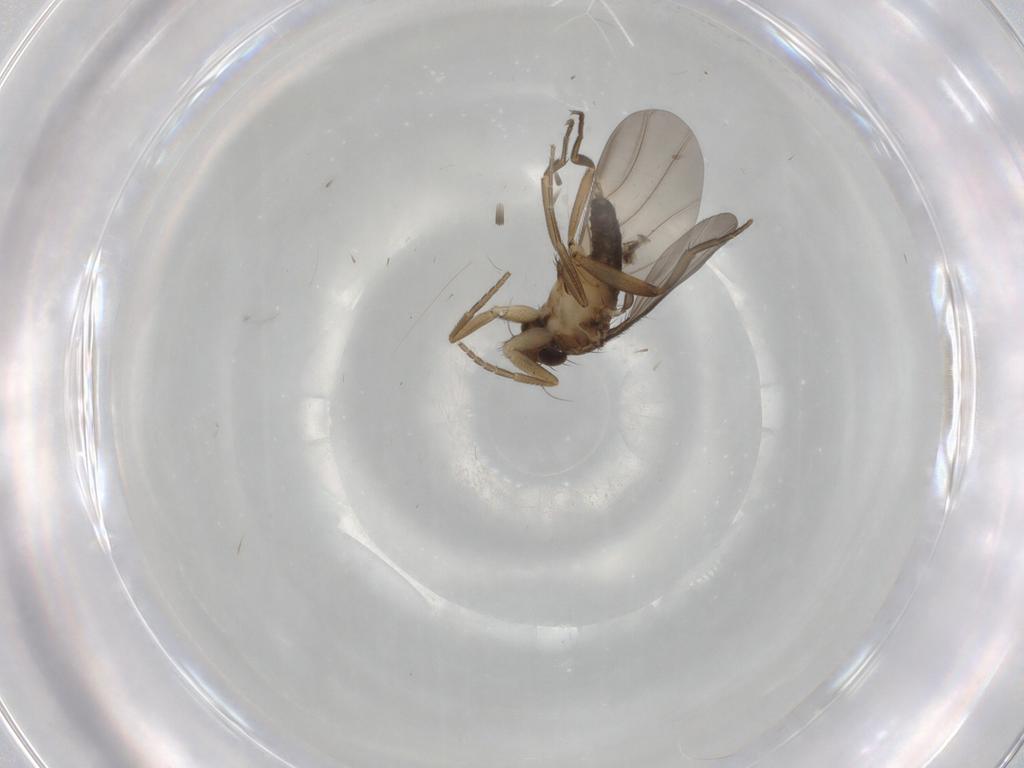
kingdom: Animalia
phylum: Arthropoda
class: Insecta
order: Diptera
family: Phoridae
